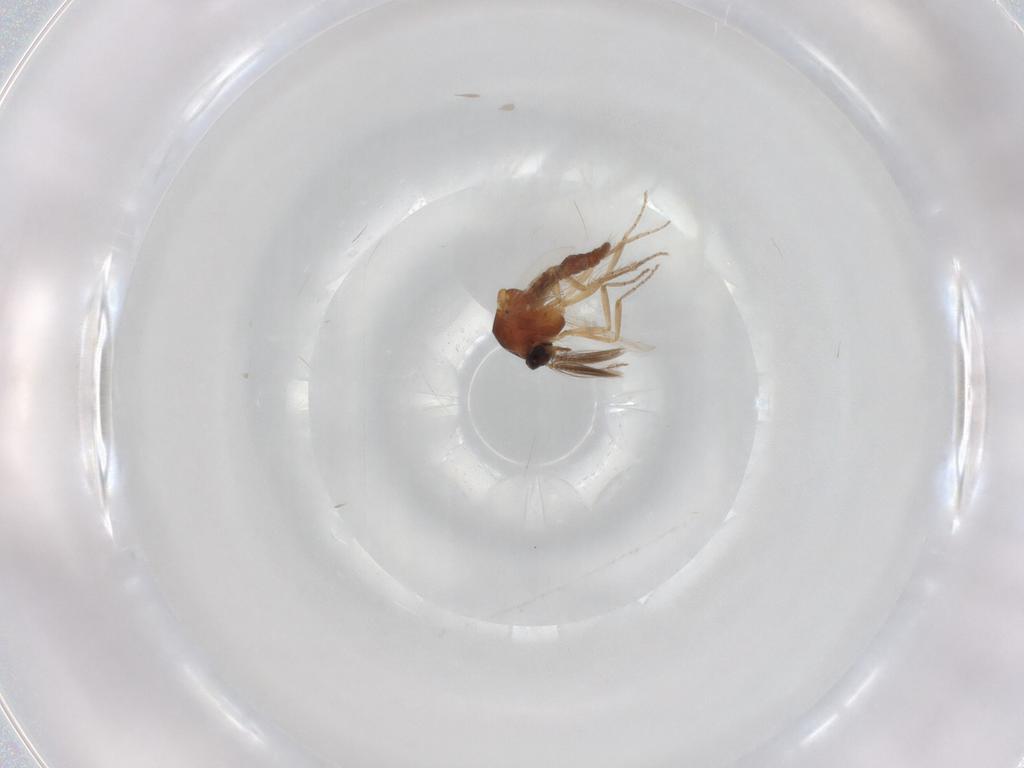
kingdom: Animalia
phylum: Arthropoda
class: Insecta
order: Diptera
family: Ceratopogonidae
